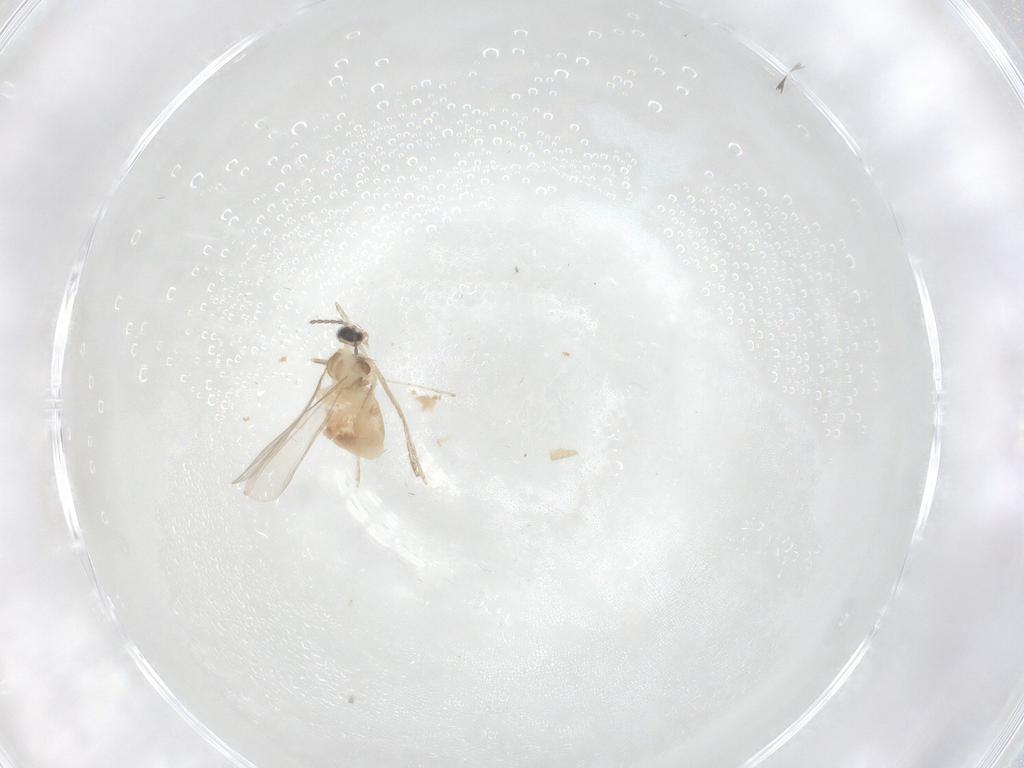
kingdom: Animalia
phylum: Arthropoda
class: Insecta
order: Diptera
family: Cecidomyiidae
